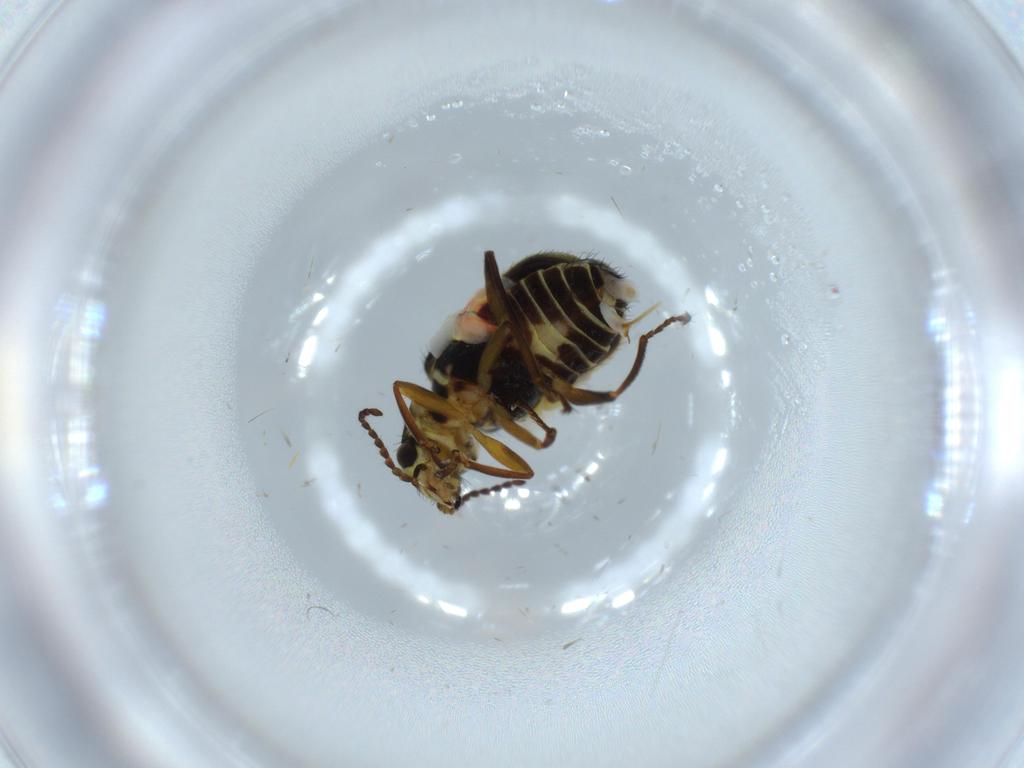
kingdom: Animalia
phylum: Arthropoda
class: Insecta
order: Coleoptera
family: Melyridae
